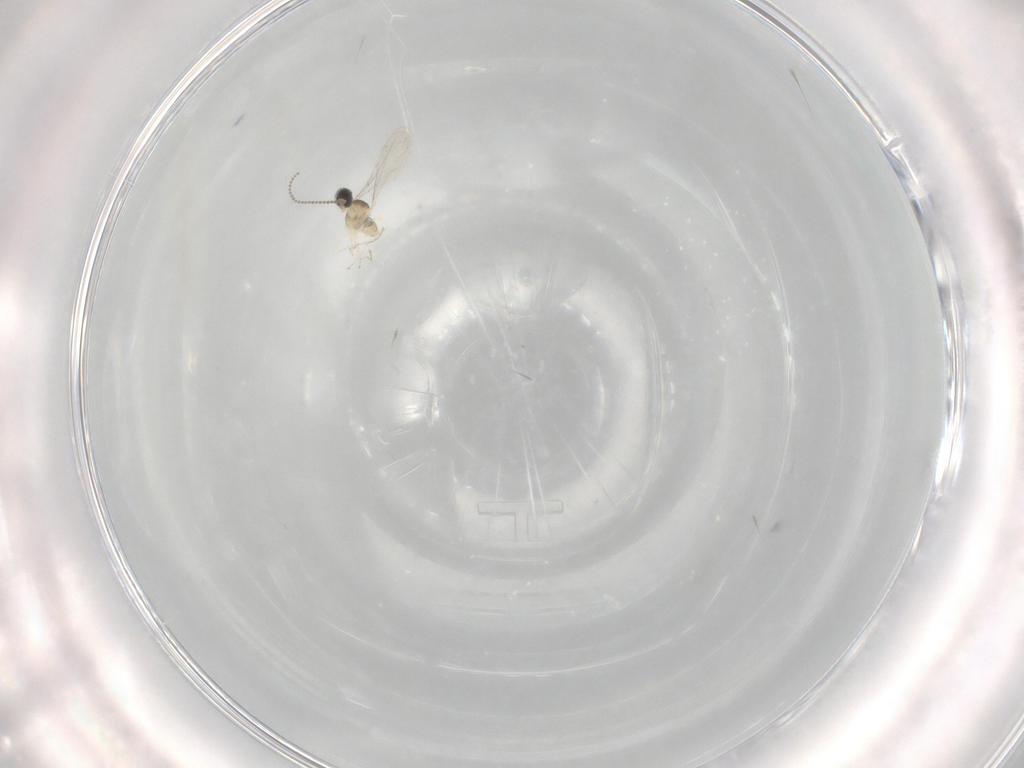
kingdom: Animalia
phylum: Arthropoda
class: Insecta
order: Diptera
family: Cecidomyiidae
